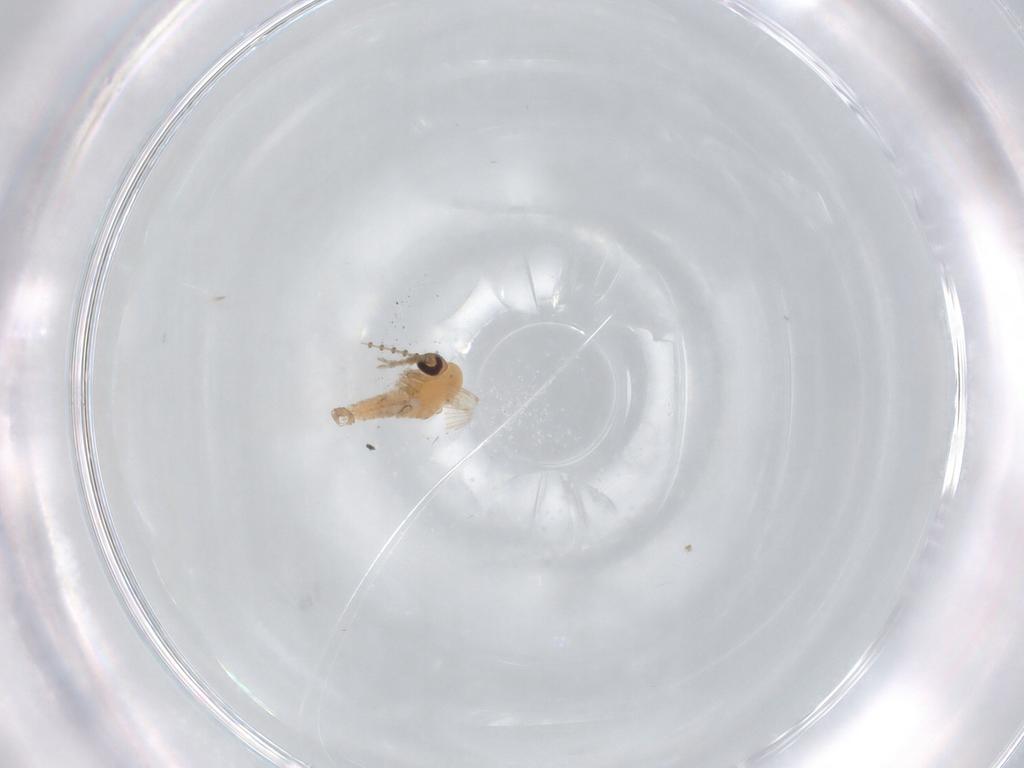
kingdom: Animalia
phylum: Arthropoda
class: Insecta
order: Diptera
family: Psychodidae
